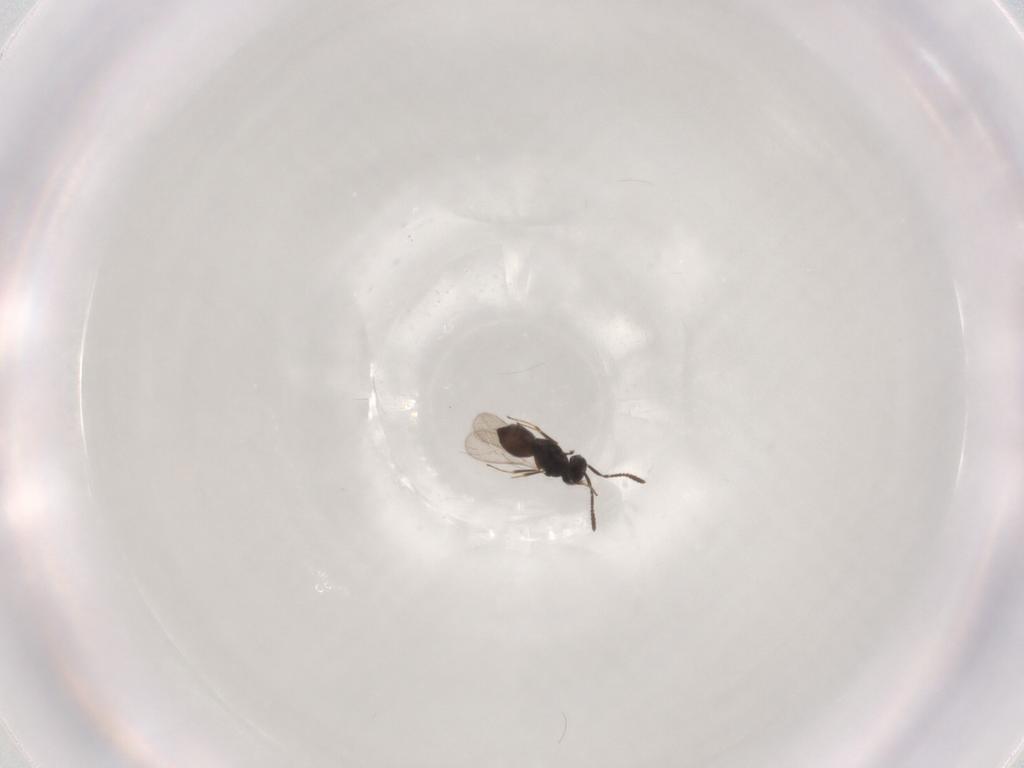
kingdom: Animalia
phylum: Arthropoda
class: Insecta
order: Hymenoptera
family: Scelionidae
